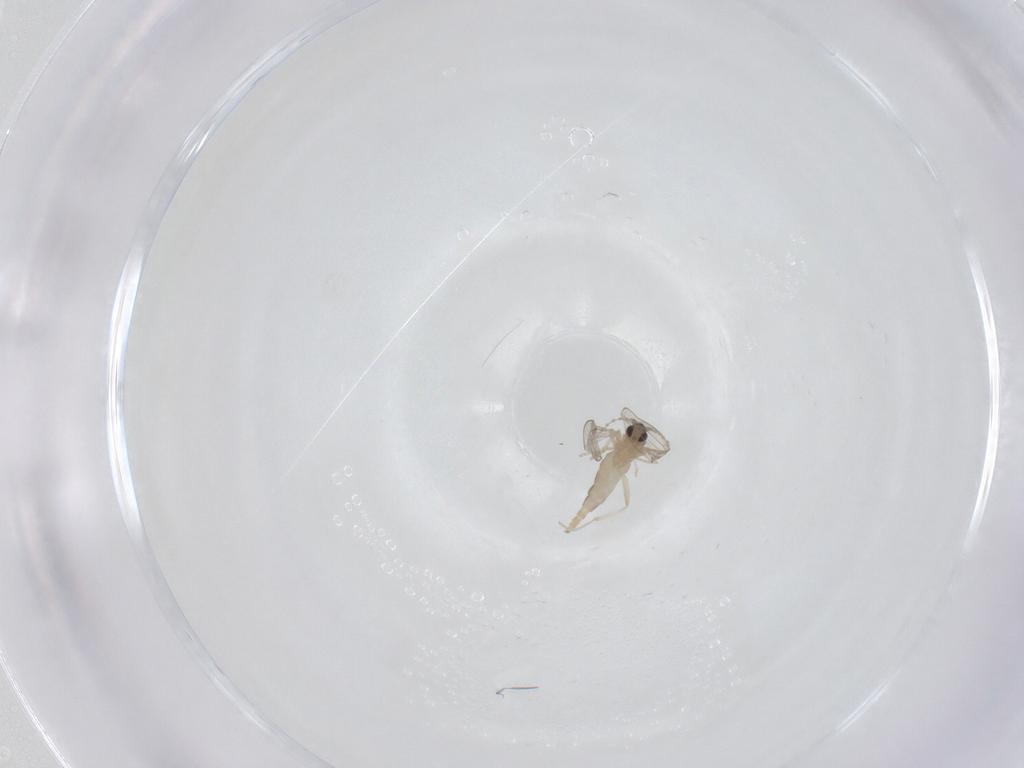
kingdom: Animalia
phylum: Arthropoda
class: Insecta
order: Diptera
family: Cecidomyiidae
